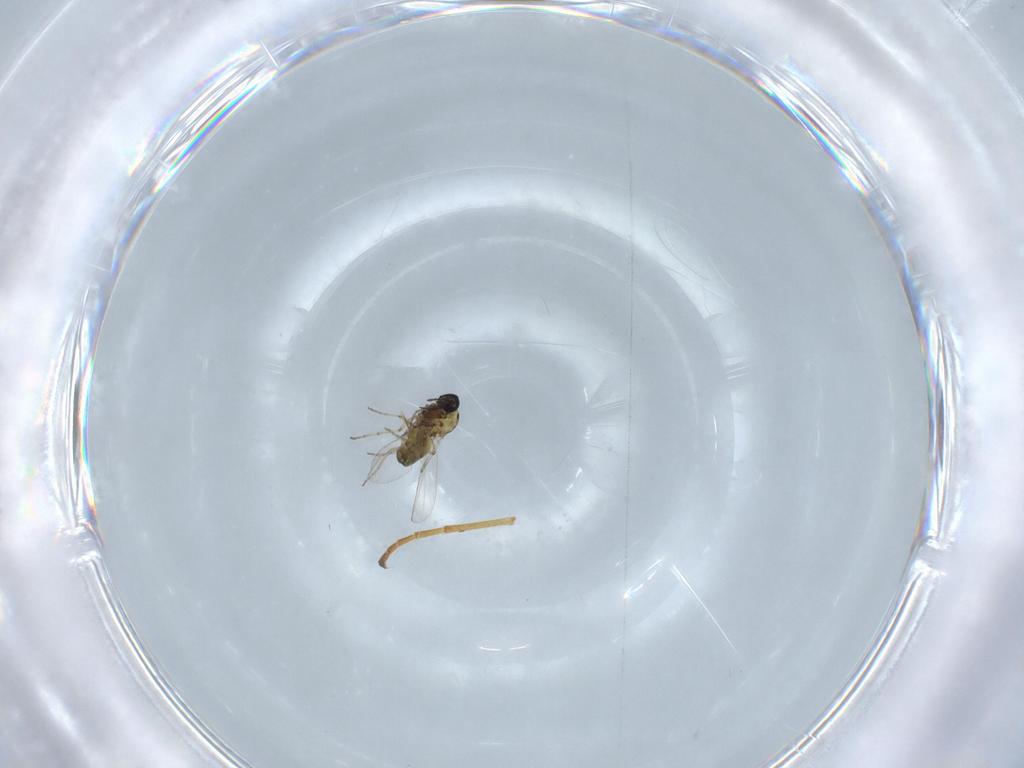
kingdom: Animalia
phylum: Arthropoda
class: Insecta
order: Diptera
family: Ceratopogonidae
